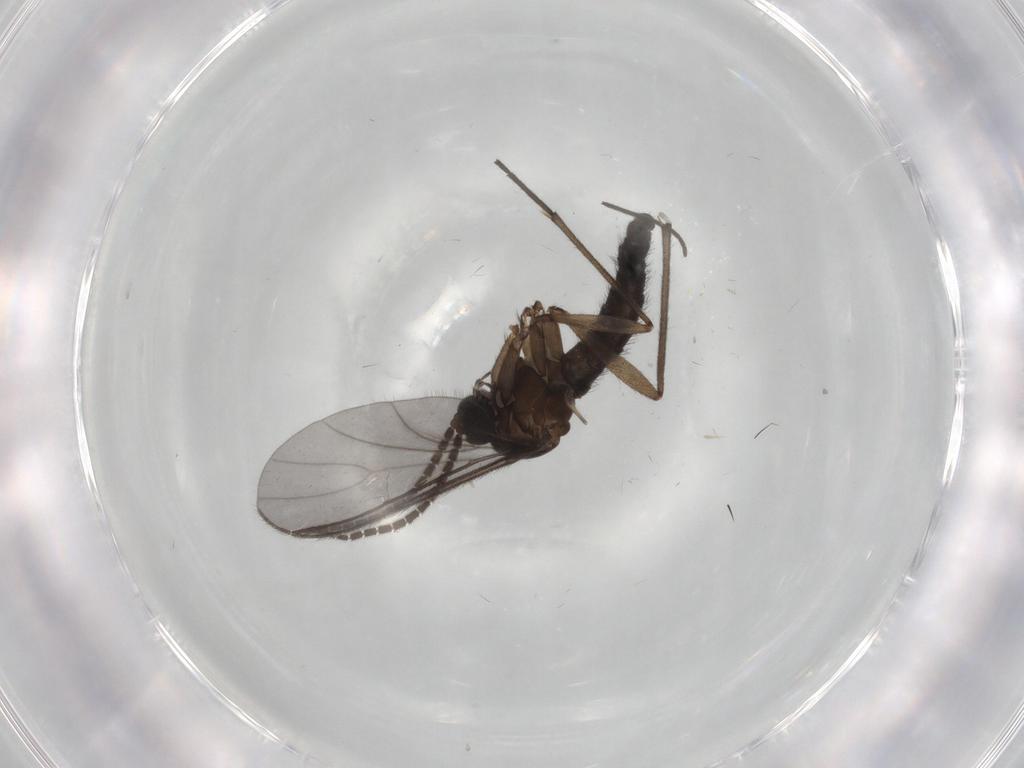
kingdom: Animalia
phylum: Arthropoda
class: Insecta
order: Diptera
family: Sciaridae
